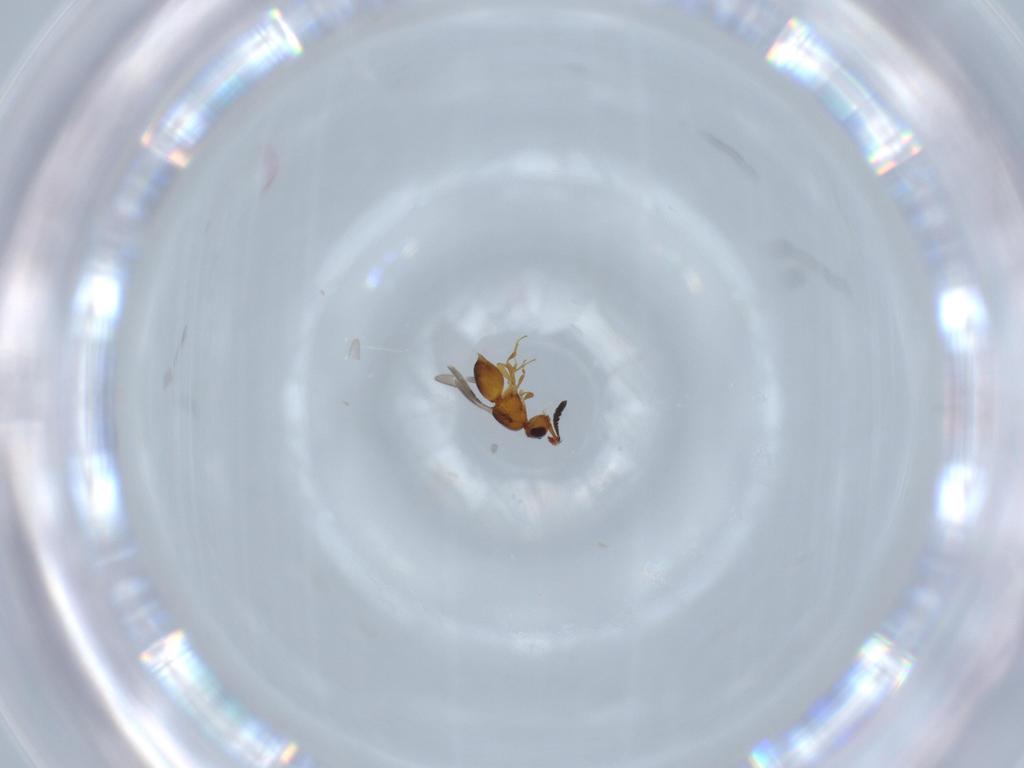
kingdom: Animalia
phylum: Arthropoda
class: Insecta
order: Hymenoptera
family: Ceraphronidae
